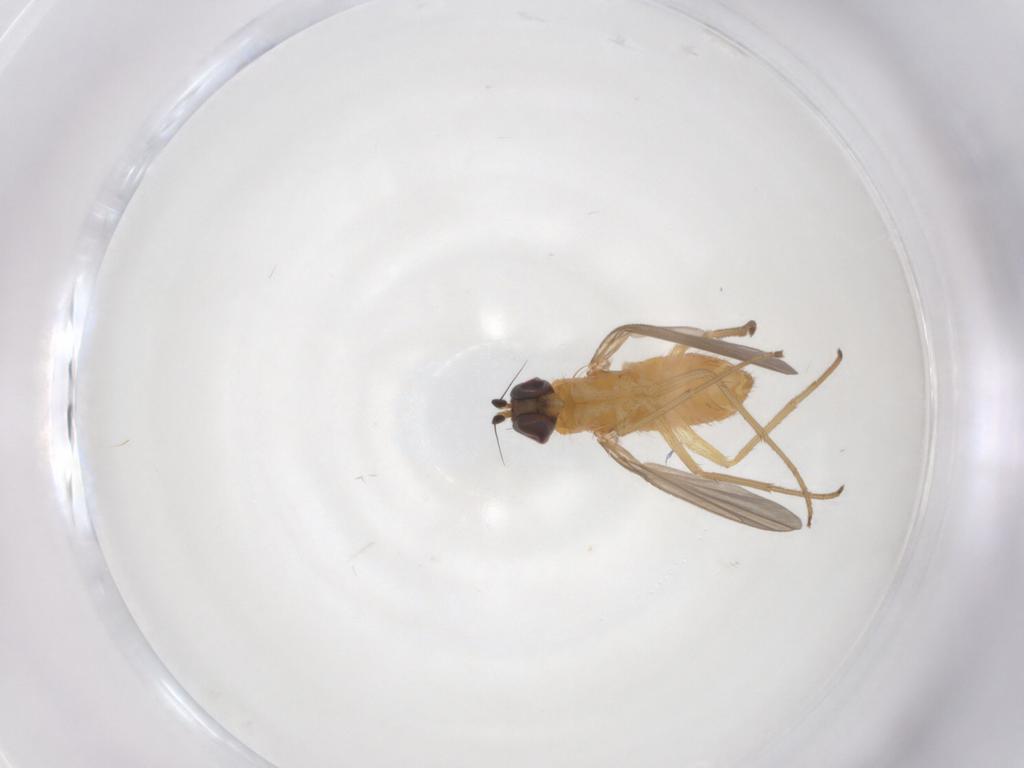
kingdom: Animalia
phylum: Arthropoda
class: Insecta
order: Diptera
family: Dolichopodidae
